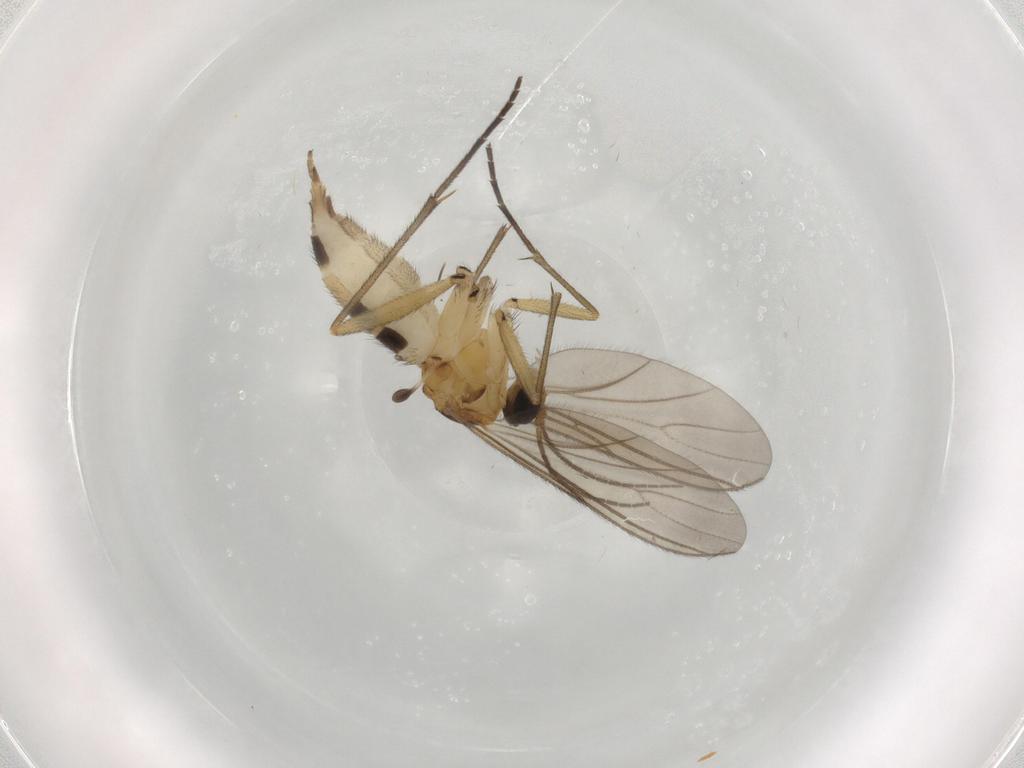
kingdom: Animalia
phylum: Arthropoda
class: Insecta
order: Diptera
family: Sciaridae
